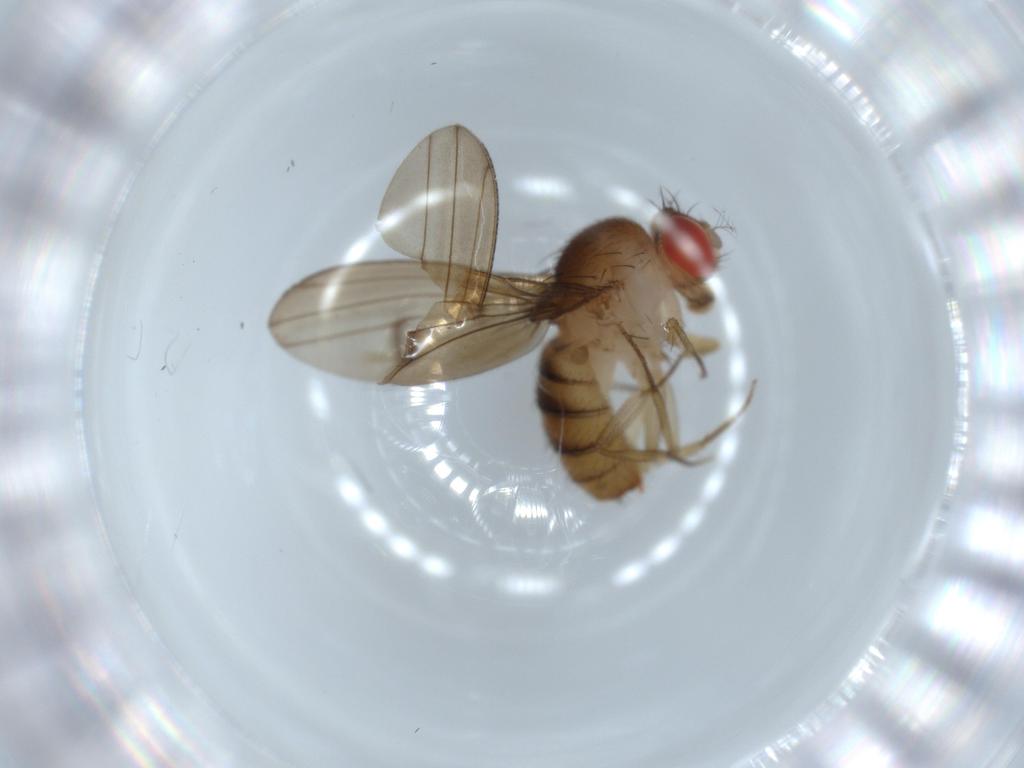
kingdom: Animalia
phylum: Arthropoda
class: Insecta
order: Diptera
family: Drosophilidae
